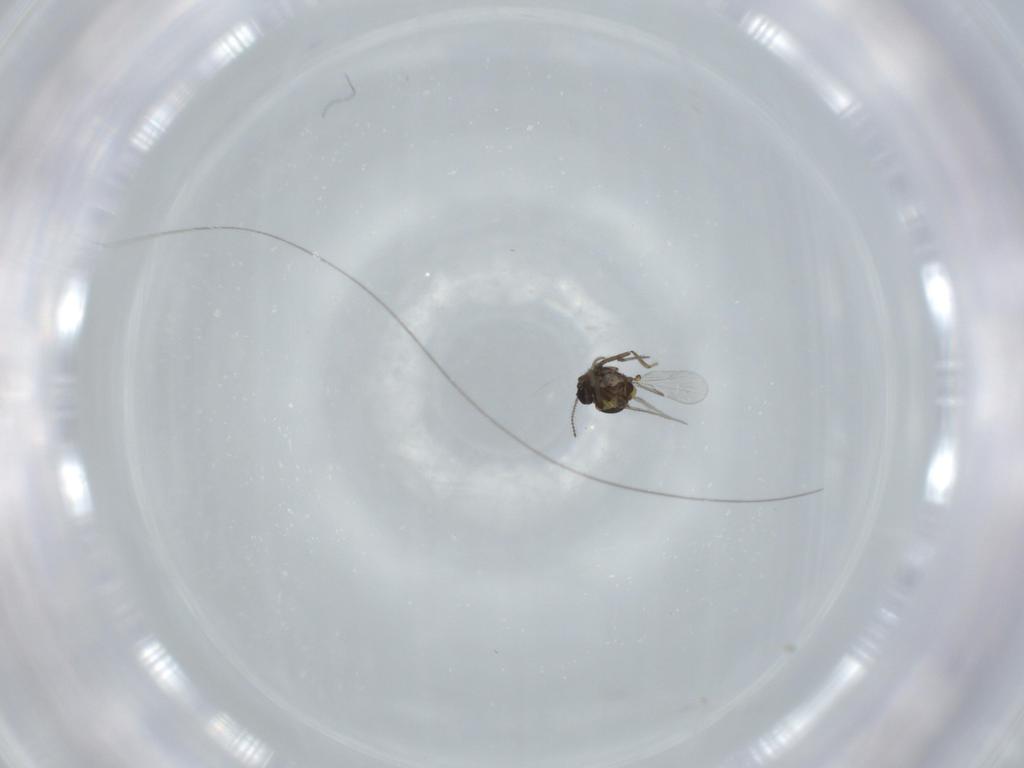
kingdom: Animalia
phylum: Arthropoda
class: Insecta
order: Diptera
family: Ceratopogonidae
